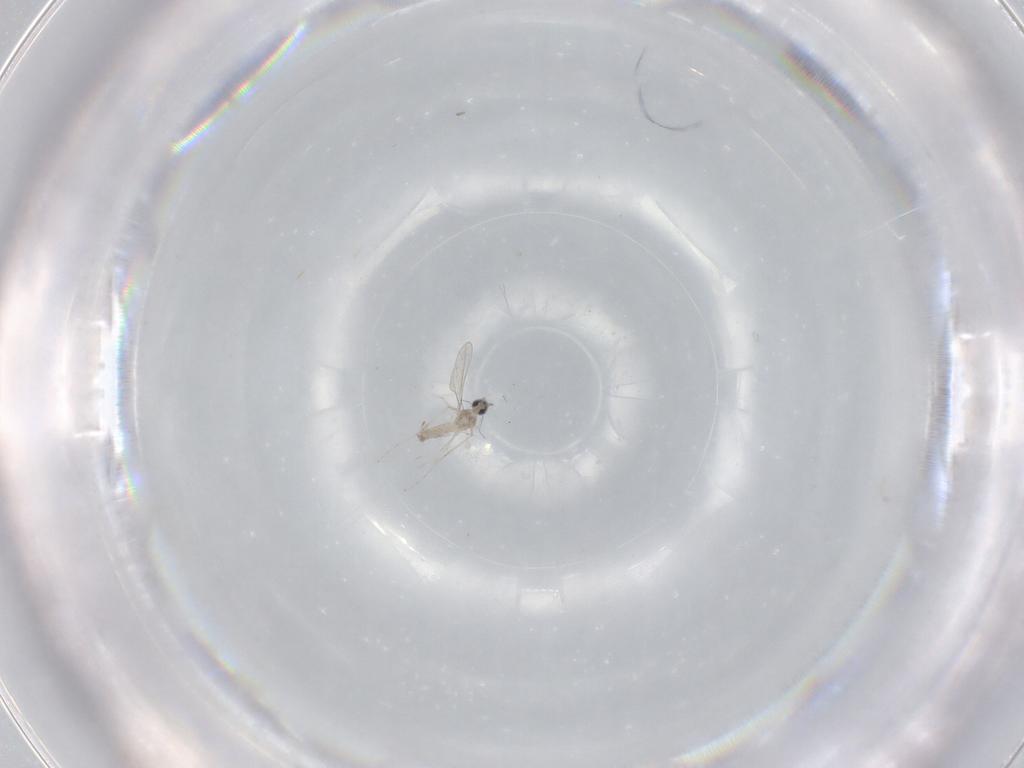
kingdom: Animalia
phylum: Arthropoda
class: Insecta
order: Diptera
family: Cecidomyiidae
